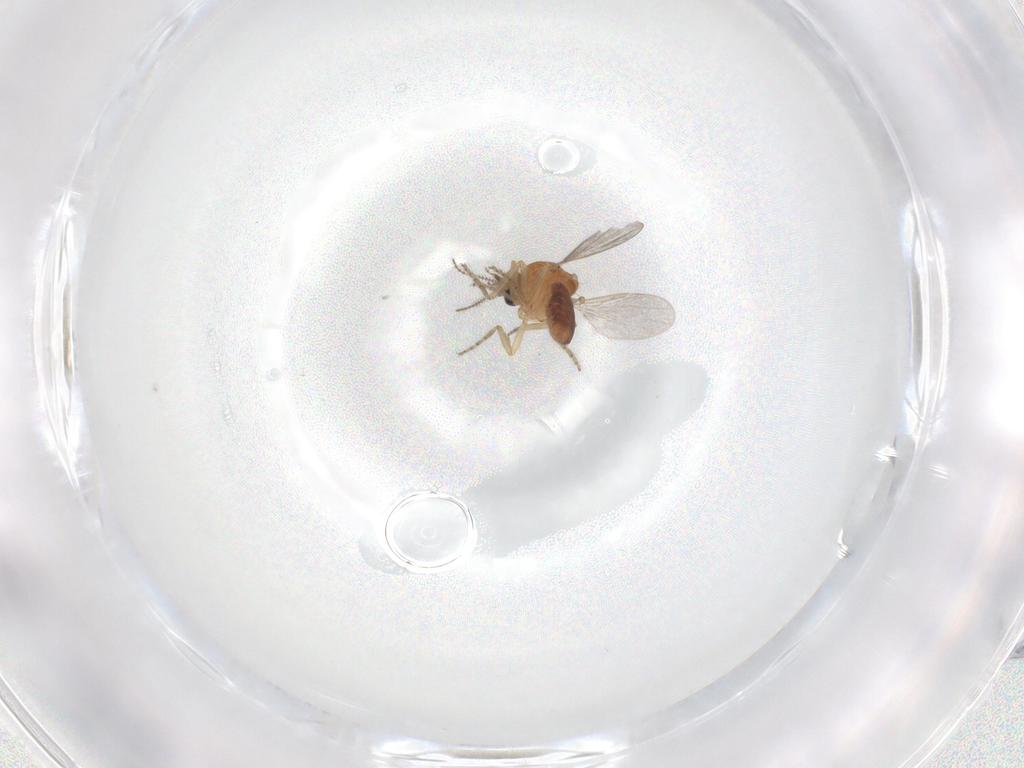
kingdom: Animalia
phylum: Arthropoda
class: Insecta
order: Diptera
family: Ceratopogonidae
